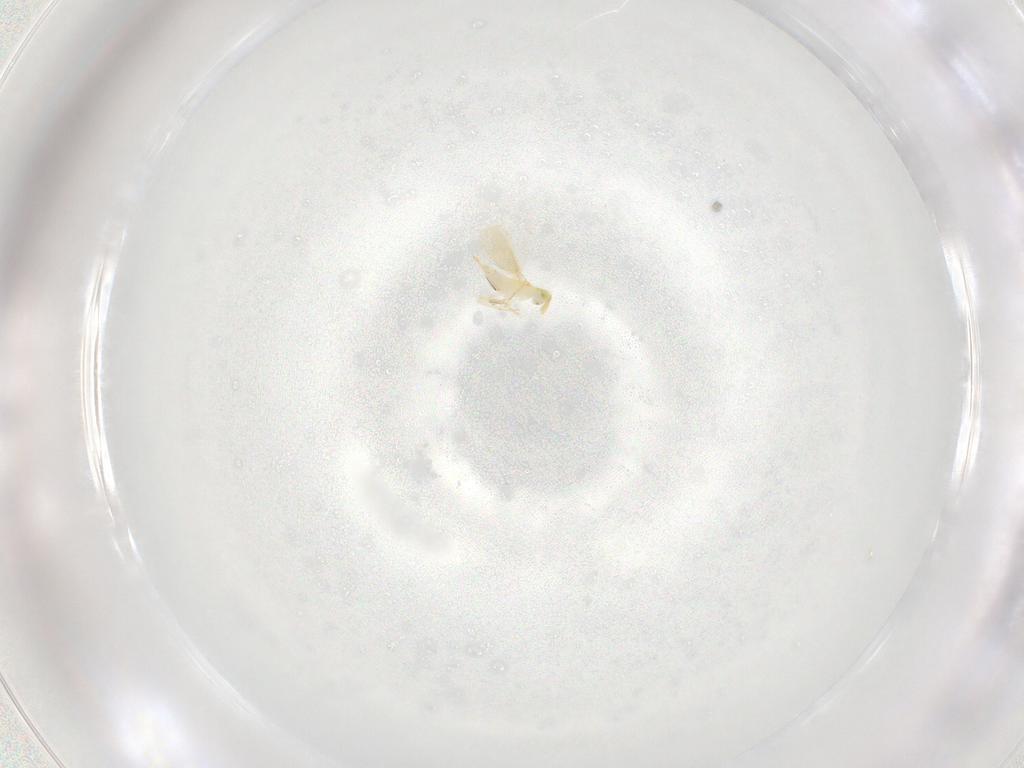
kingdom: Animalia
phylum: Arthropoda
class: Insecta
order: Hymenoptera
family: Aphelinidae
